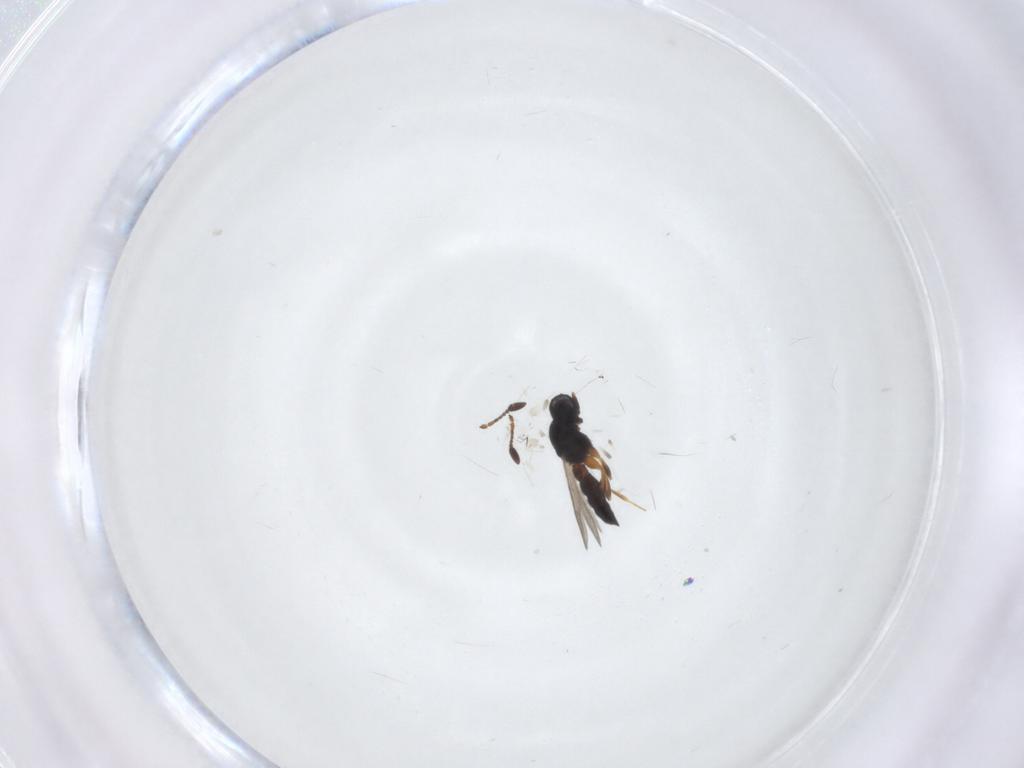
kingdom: Animalia
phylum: Arthropoda
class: Insecta
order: Hymenoptera
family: Scelionidae
